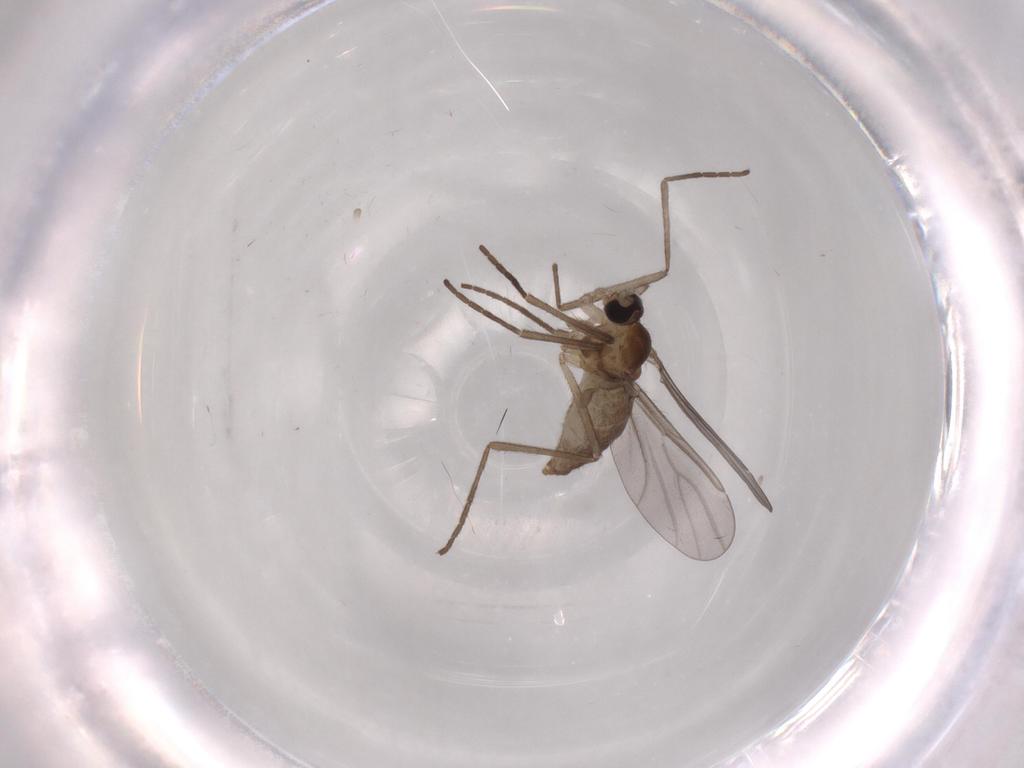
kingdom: Animalia
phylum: Arthropoda
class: Insecta
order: Diptera
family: Cecidomyiidae
